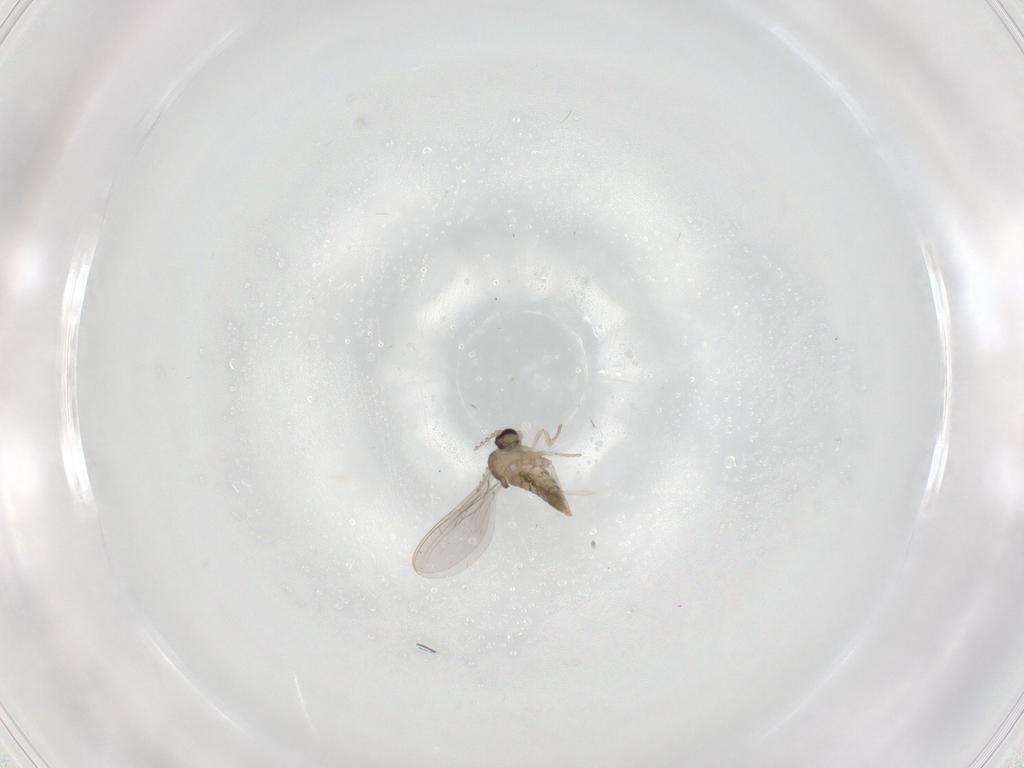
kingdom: Animalia
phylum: Arthropoda
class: Insecta
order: Diptera
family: Cecidomyiidae
